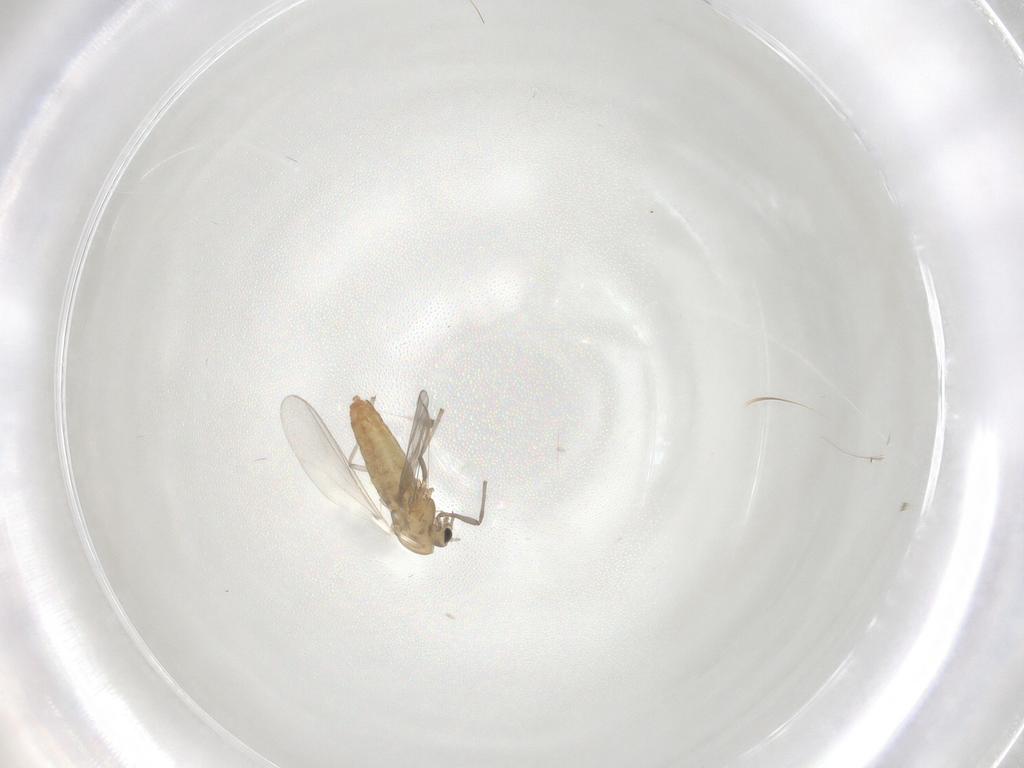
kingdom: Animalia
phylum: Arthropoda
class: Insecta
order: Diptera
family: Chironomidae
